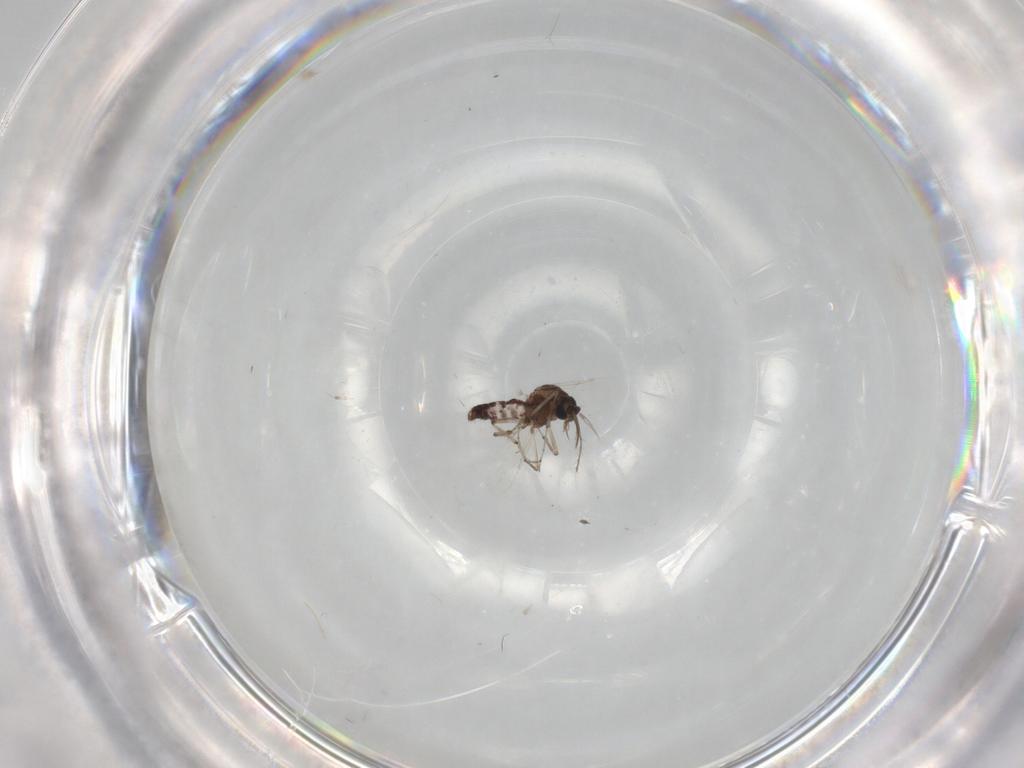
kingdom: Animalia
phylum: Arthropoda
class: Insecta
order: Diptera
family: Ceratopogonidae
